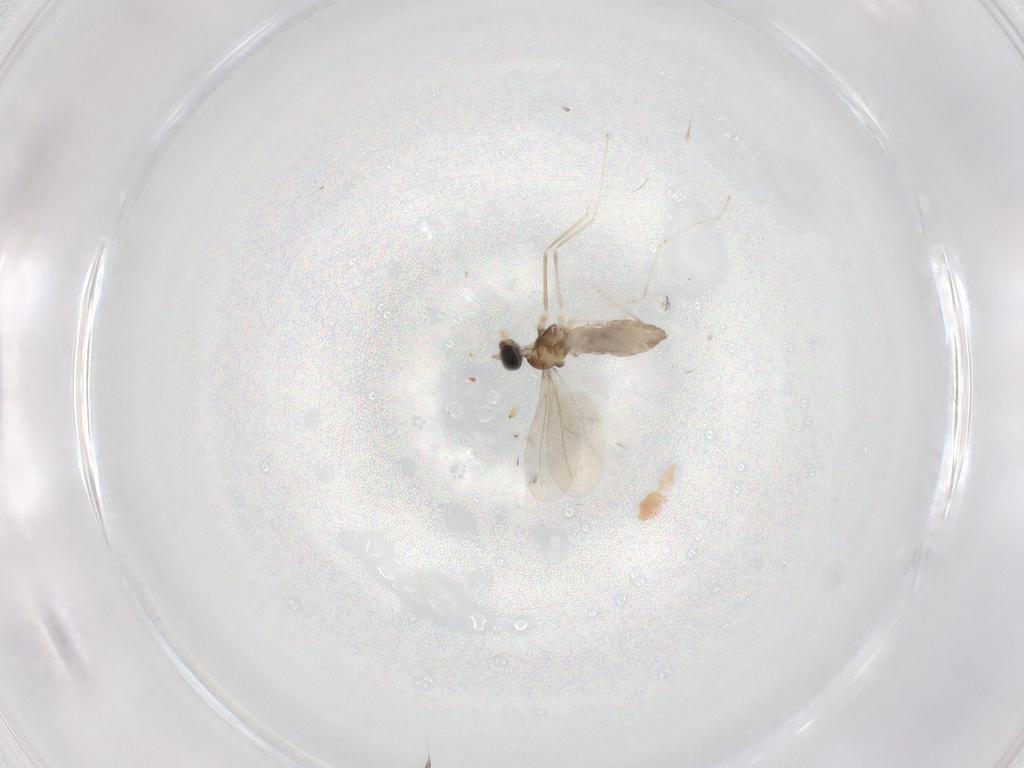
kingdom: Animalia
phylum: Arthropoda
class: Insecta
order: Diptera
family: Cecidomyiidae
